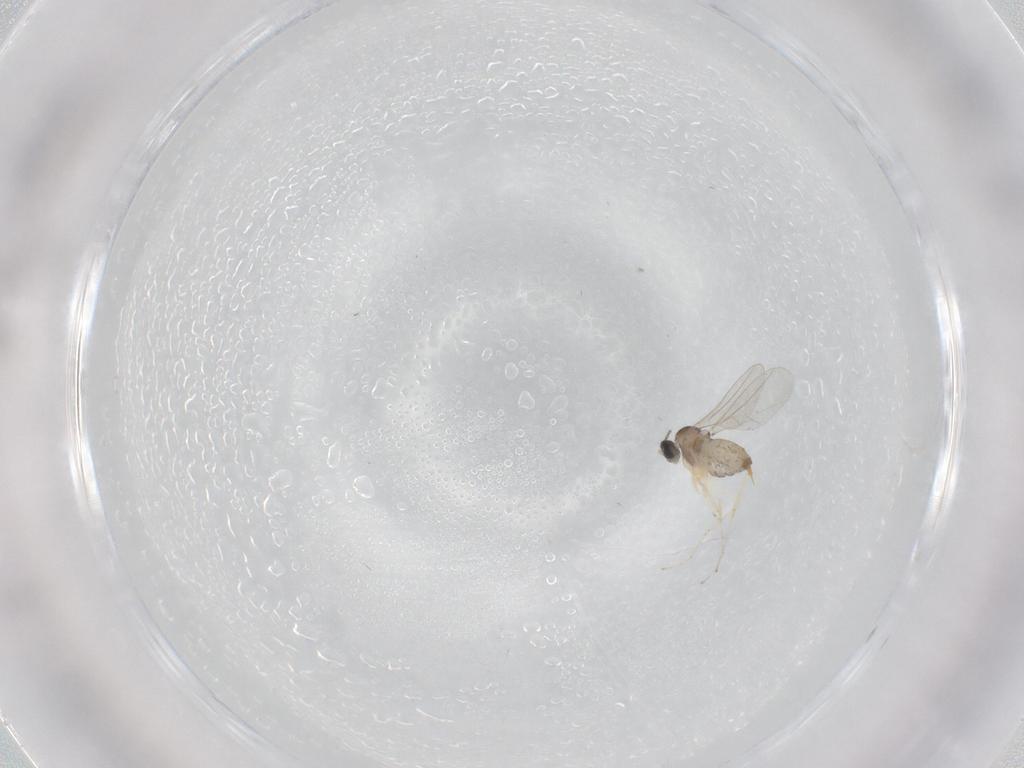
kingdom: Animalia
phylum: Arthropoda
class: Insecta
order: Diptera
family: Cecidomyiidae
